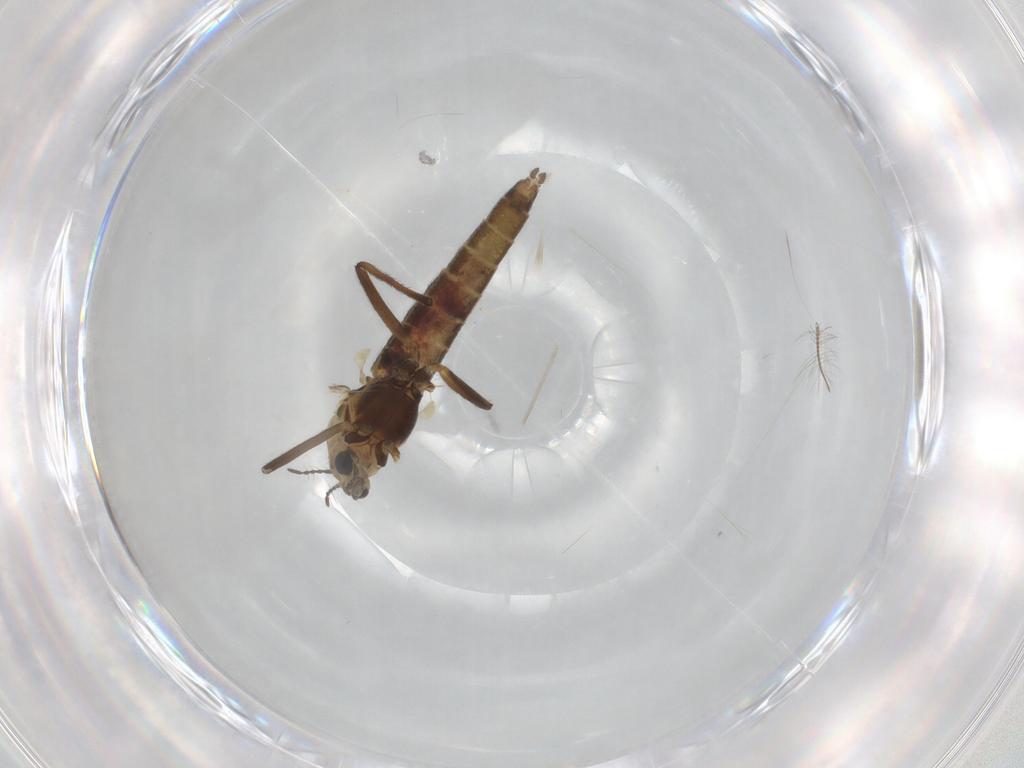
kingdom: Animalia
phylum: Arthropoda
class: Insecta
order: Diptera
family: Chironomidae
